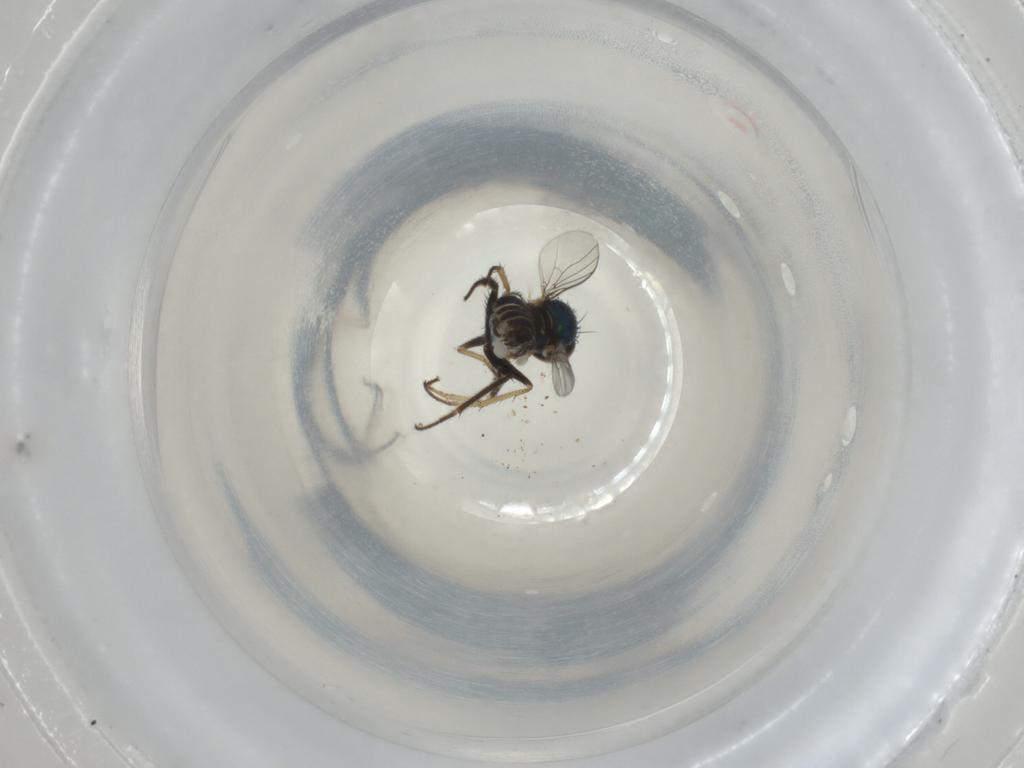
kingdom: Animalia
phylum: Arthropoda
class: Insecta
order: Diptera
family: Dolichopodidae
